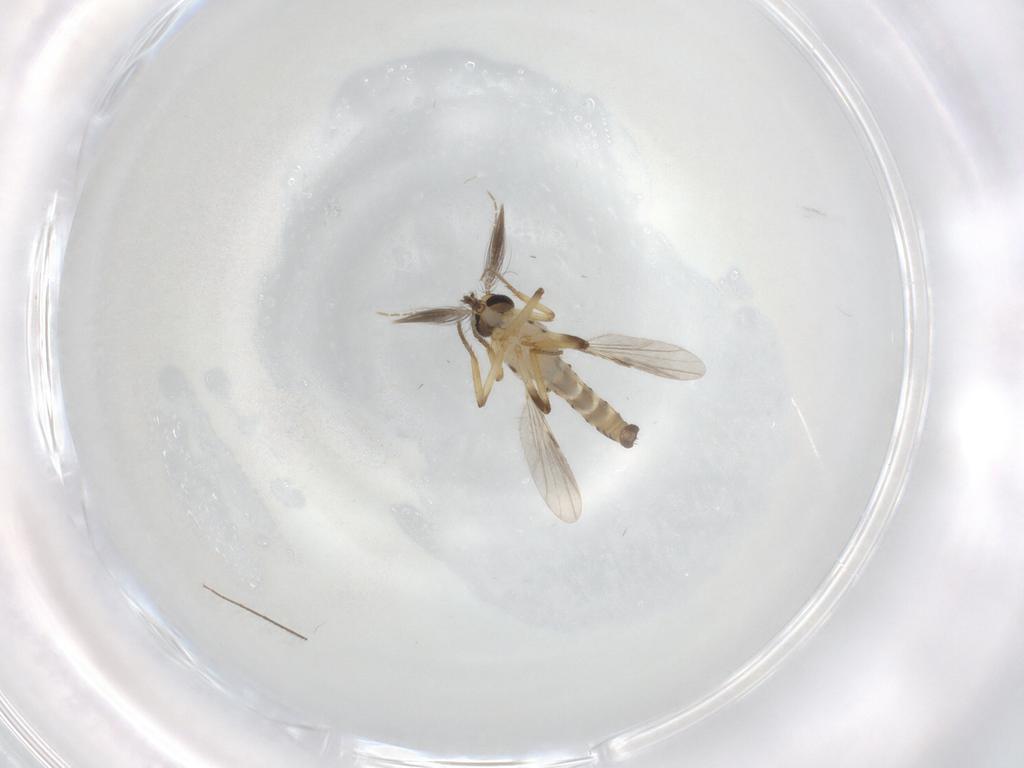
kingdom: Animalia
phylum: Arthropoda
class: Insecta
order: Diptera
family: Ceratopogonidae
